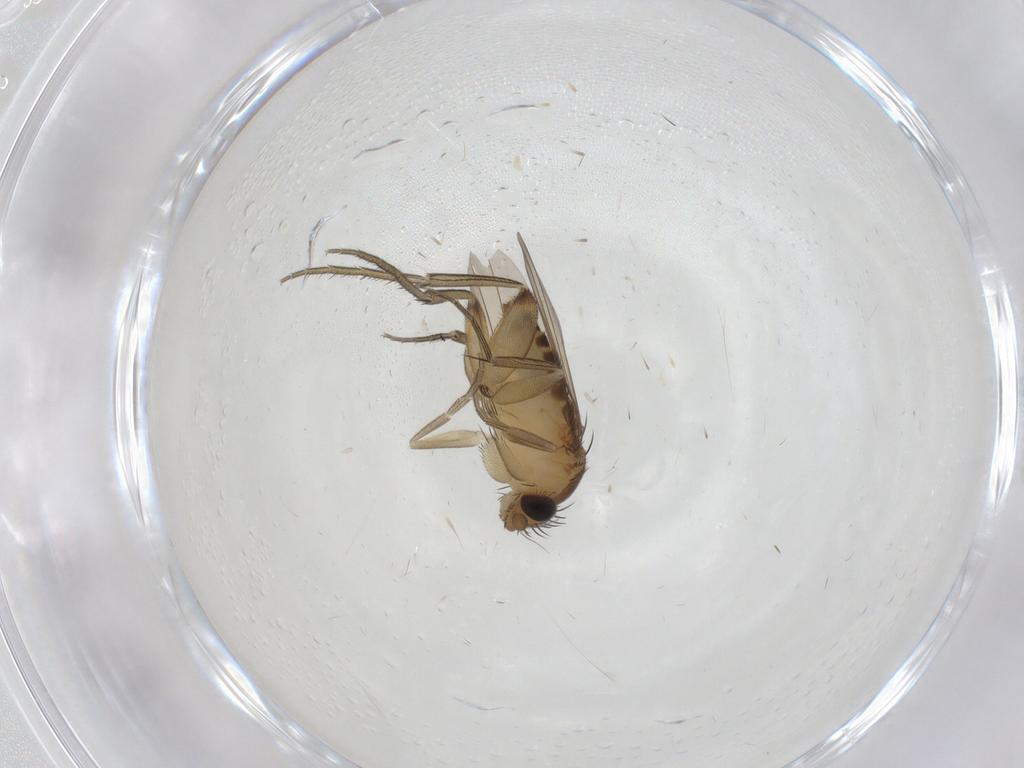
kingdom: Animalia
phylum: Arthropoda
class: Insecta
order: Diptera
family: Phoridae
